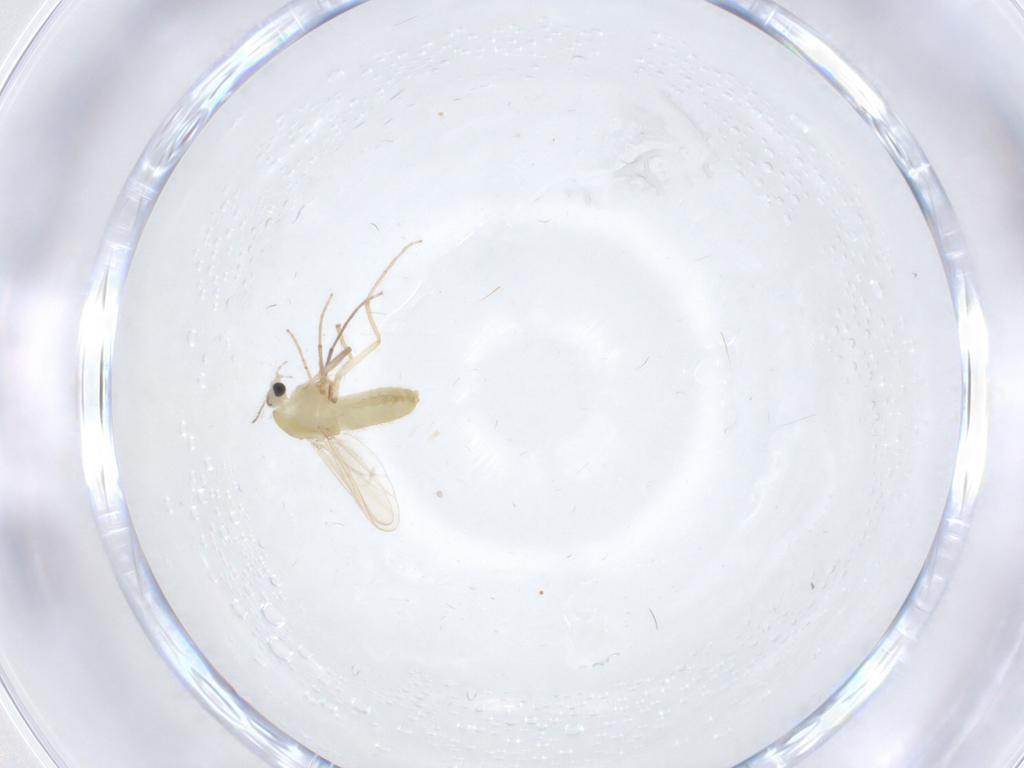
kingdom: Animalia
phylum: Arthropoda
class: Insecta
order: Diptera
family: Chironomidae
